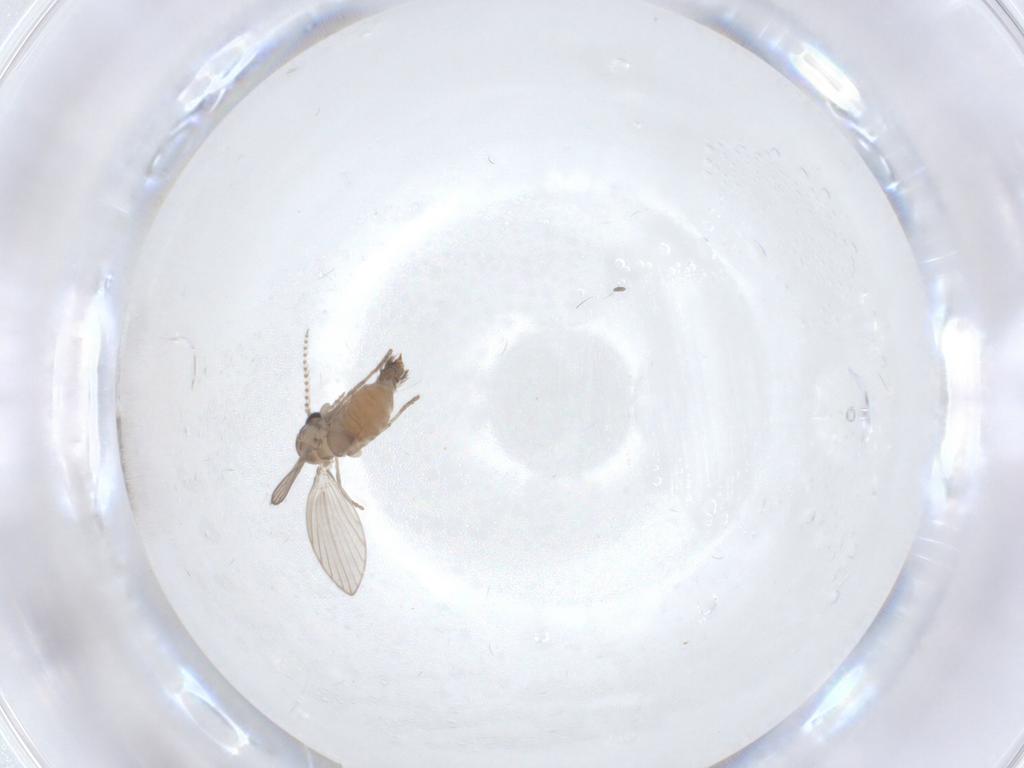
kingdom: Animalia
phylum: Arthropoda
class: Insecta
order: Diptera
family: Psychodidae
